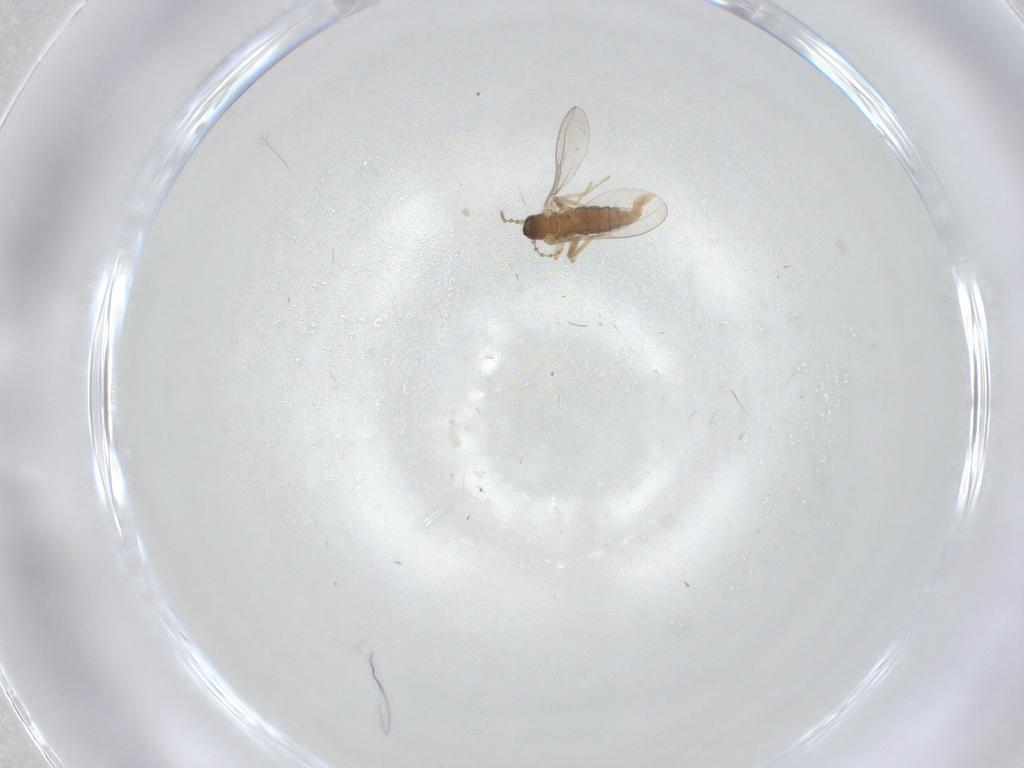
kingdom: Animalia
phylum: Arthropoda
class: Insecta
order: Diptera
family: Cecidomyiidae
